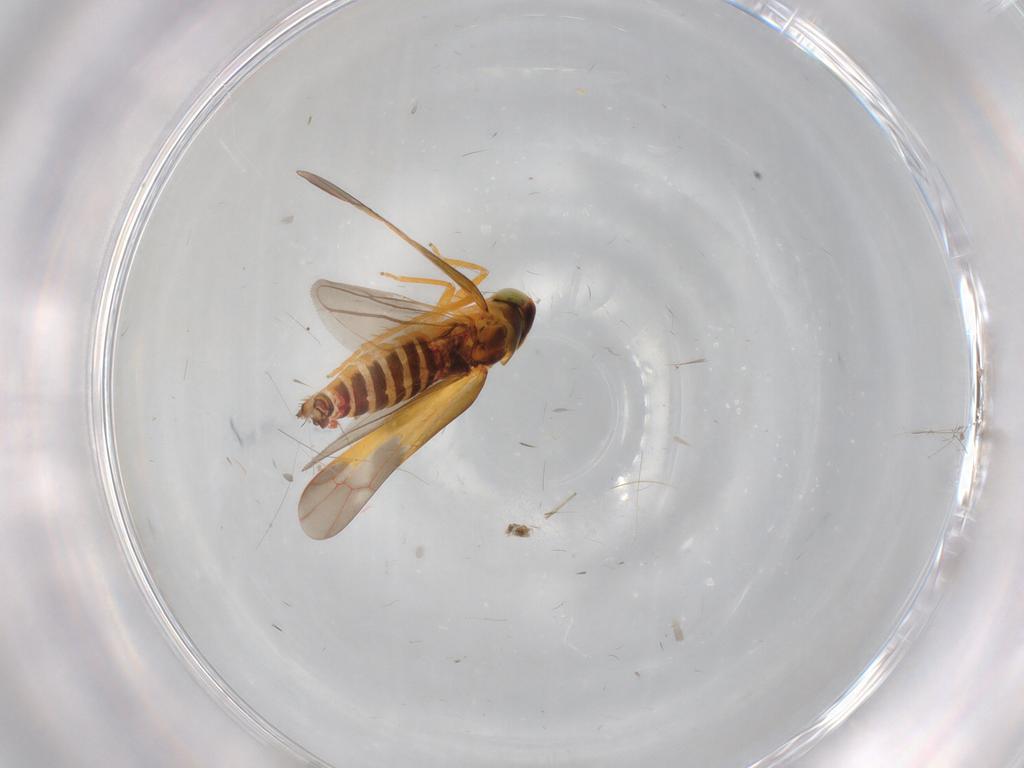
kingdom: Animalia
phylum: Arthropoda
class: Insecta
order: Hemiptera
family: Cicadellidae
